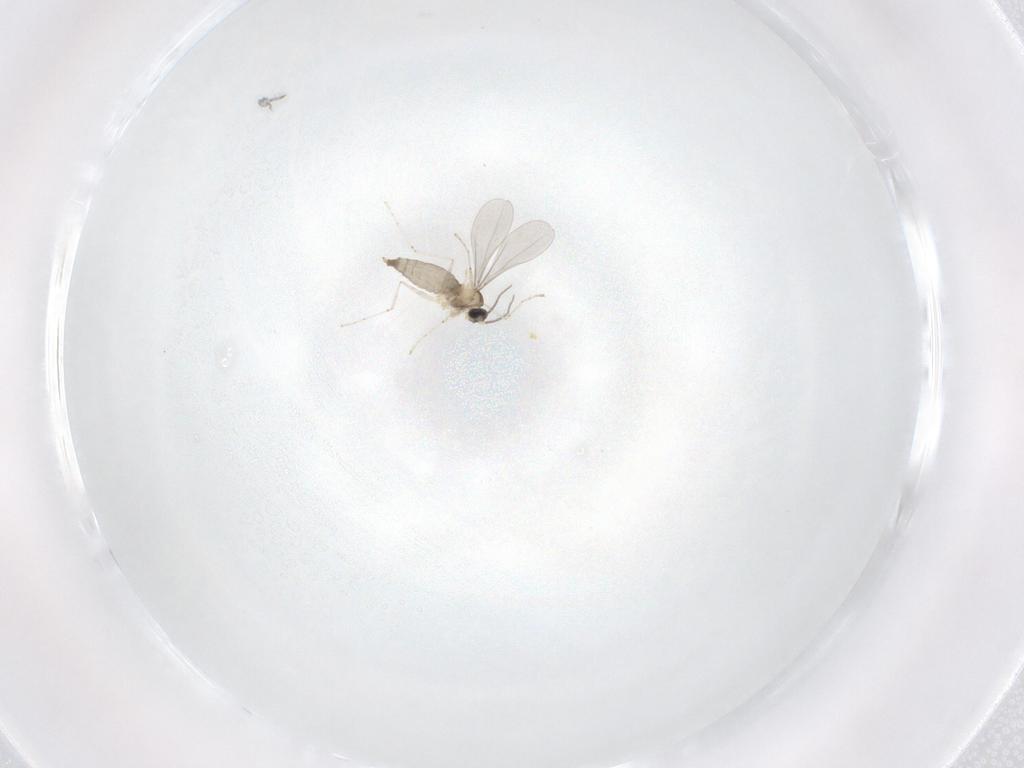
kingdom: Animalia
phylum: Arthropoda
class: Insecta
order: Diptera
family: Cecidomyiidae
